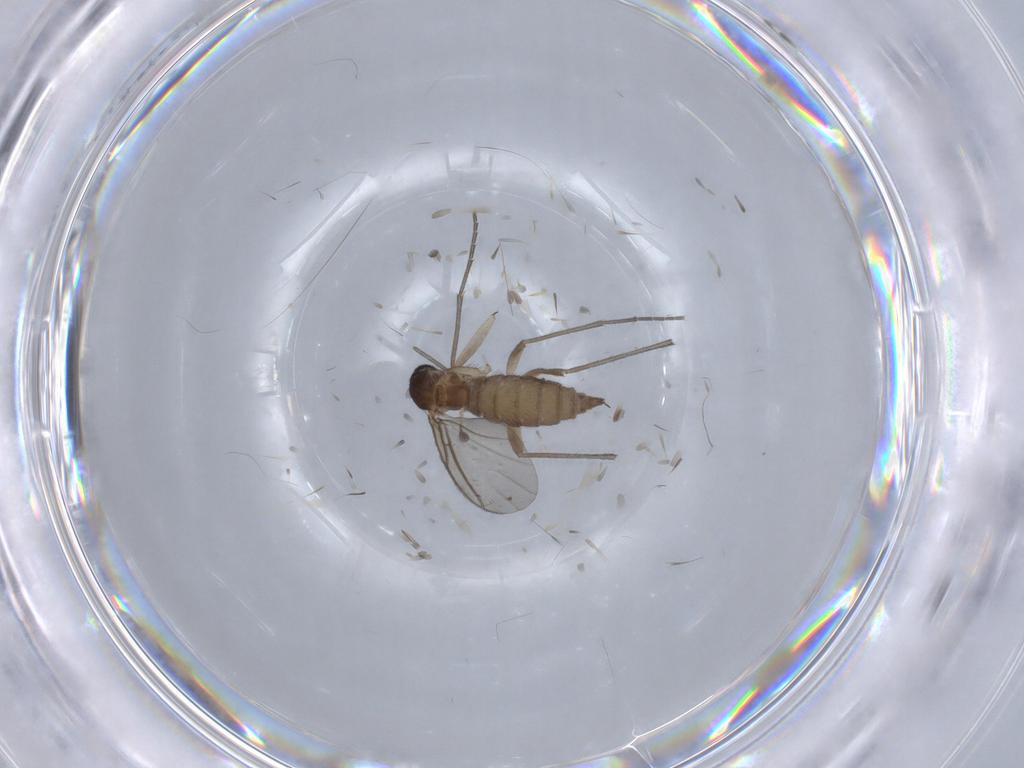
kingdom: Animalia
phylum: Arthropoda
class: Insecta
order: Diptera
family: Sciaridae
